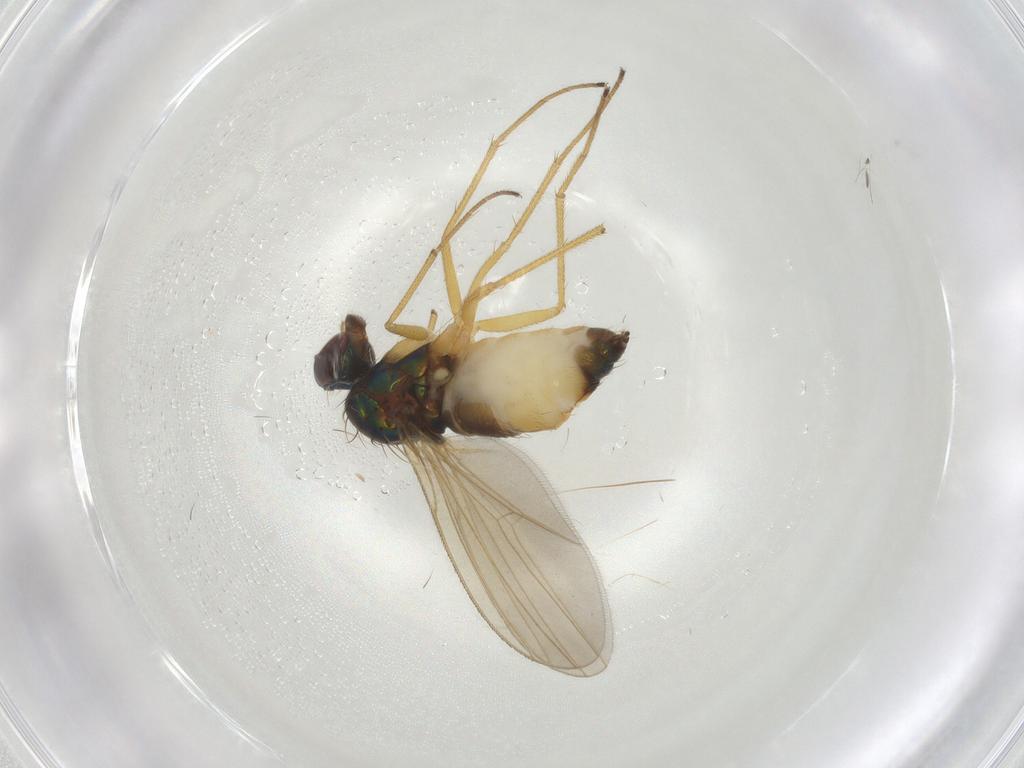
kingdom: Animalia
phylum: Arthropoda
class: Insecta
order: Diptera
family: Dolichopodidae
